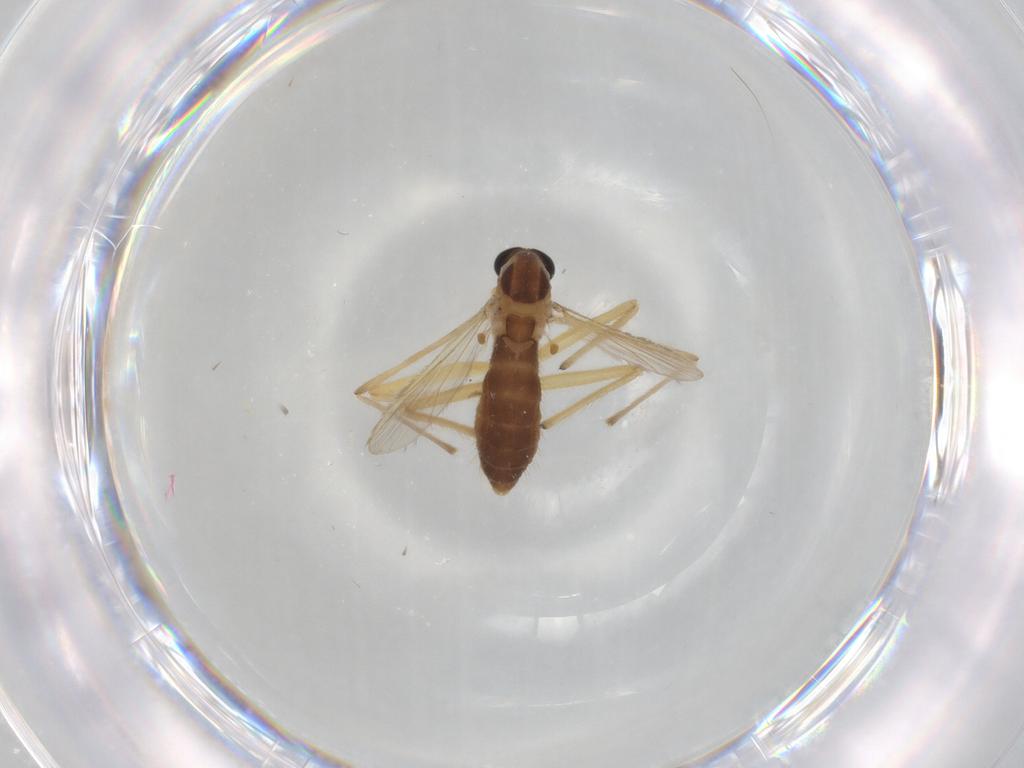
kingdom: Animalia
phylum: Arthropoda
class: Insecta
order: Diptera
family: Chironomidae
